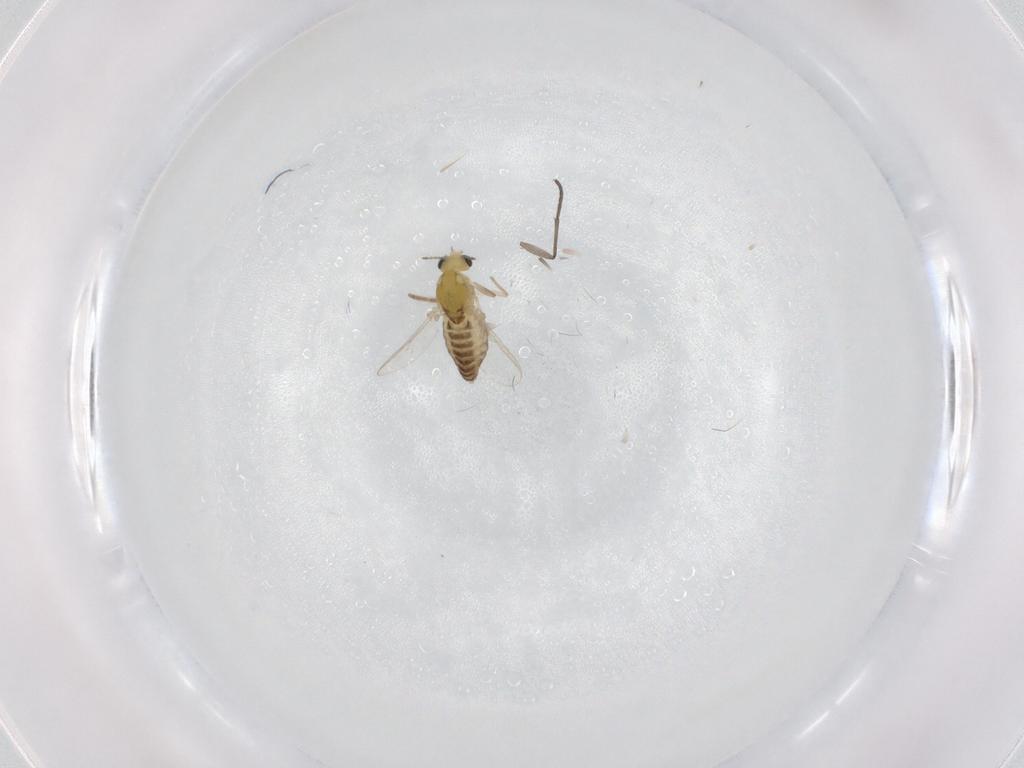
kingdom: Animalia
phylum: Arthropoda
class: Insecta
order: Diptera
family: Chironomidae
